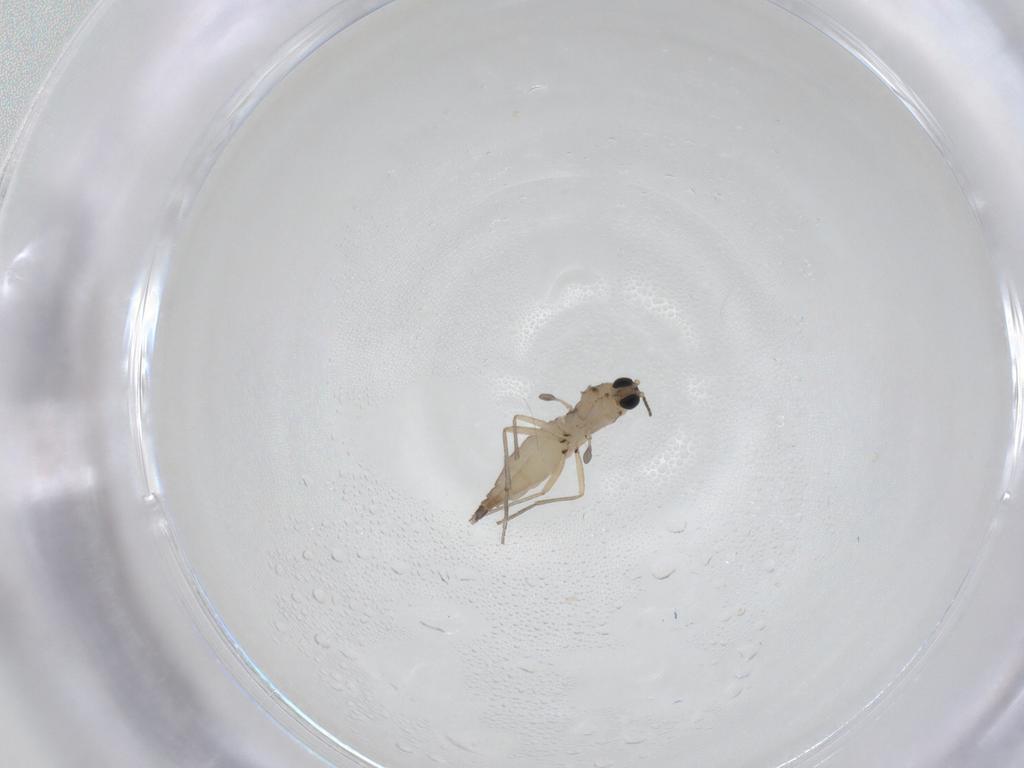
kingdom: Animalia
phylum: Arthropoda
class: Insecta
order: Diptera
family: Sciaridae
